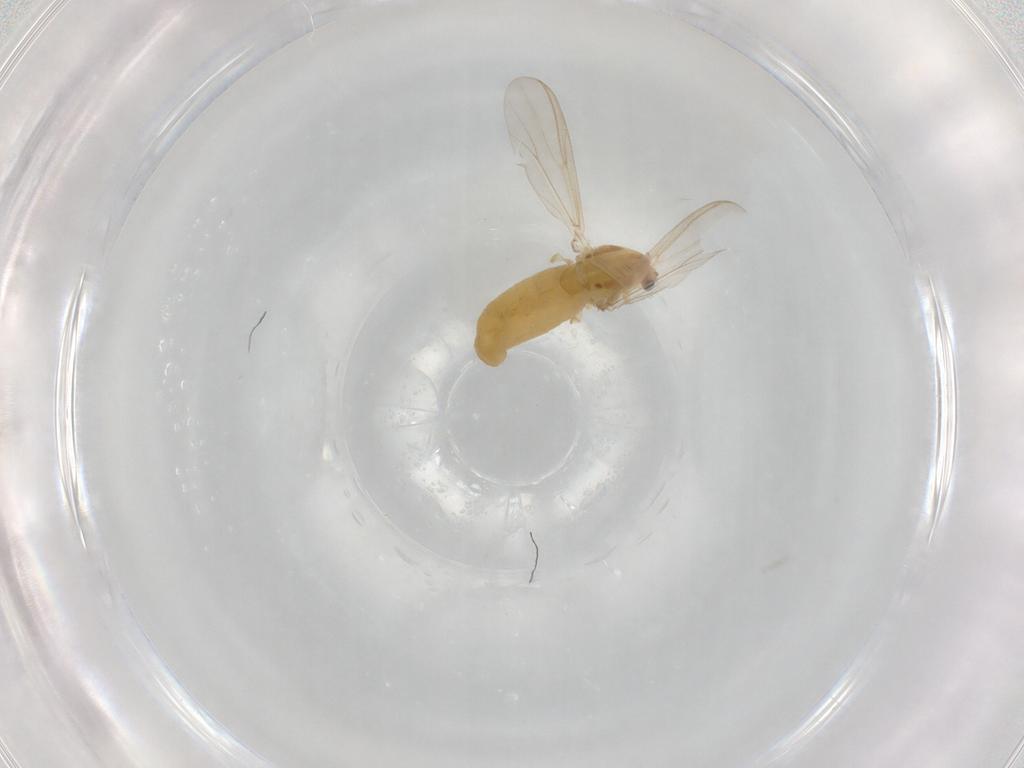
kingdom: Animalia
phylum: Arthropoda
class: Insecta
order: Diptera
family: Chironomidae
